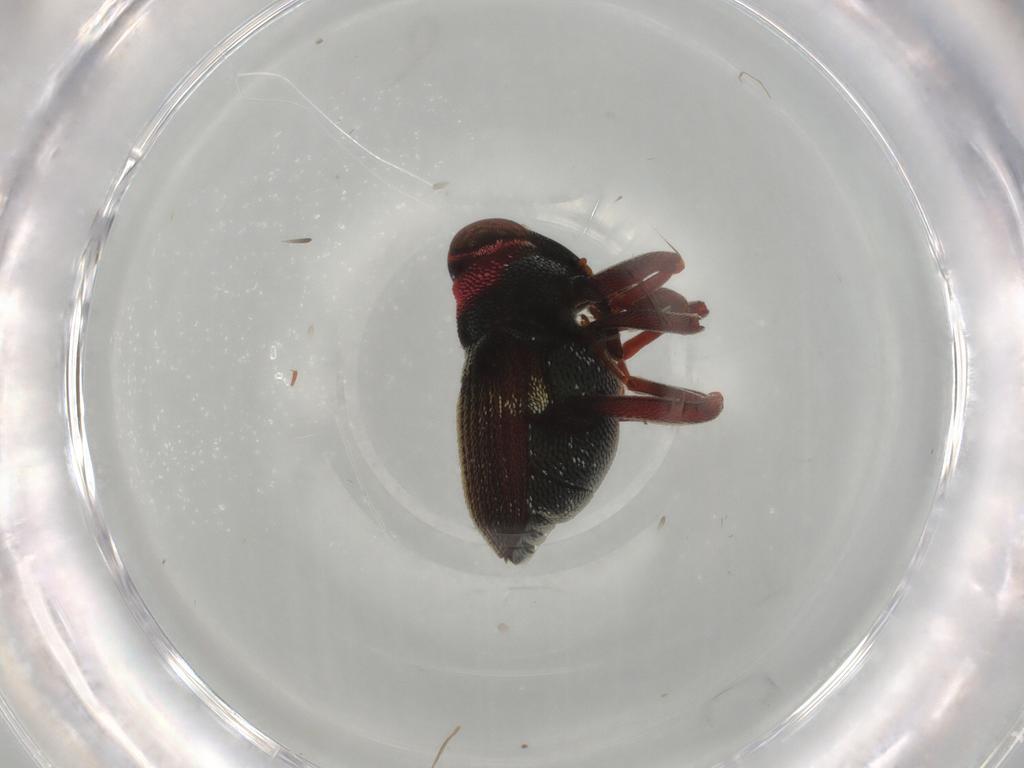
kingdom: Animalia
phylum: Arthropoda
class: Insecta
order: Coleoptera
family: Curculionidae
